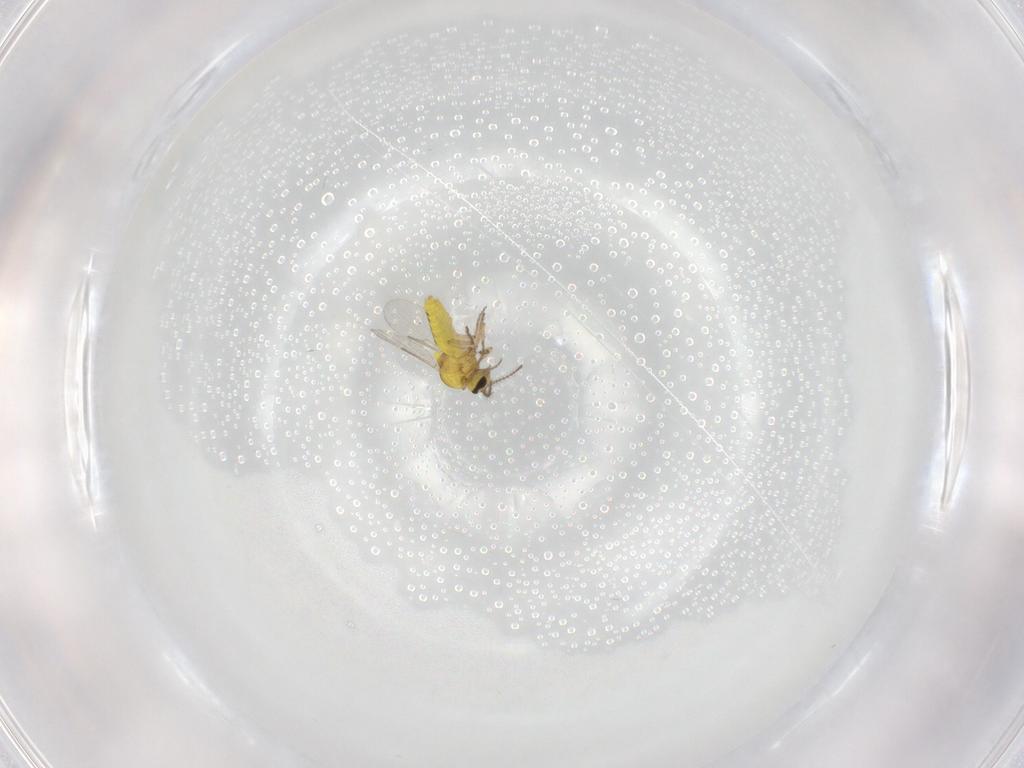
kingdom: Animalia
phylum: Arthropoda
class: Insecta
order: Diptera
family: Ceratopogonidae
